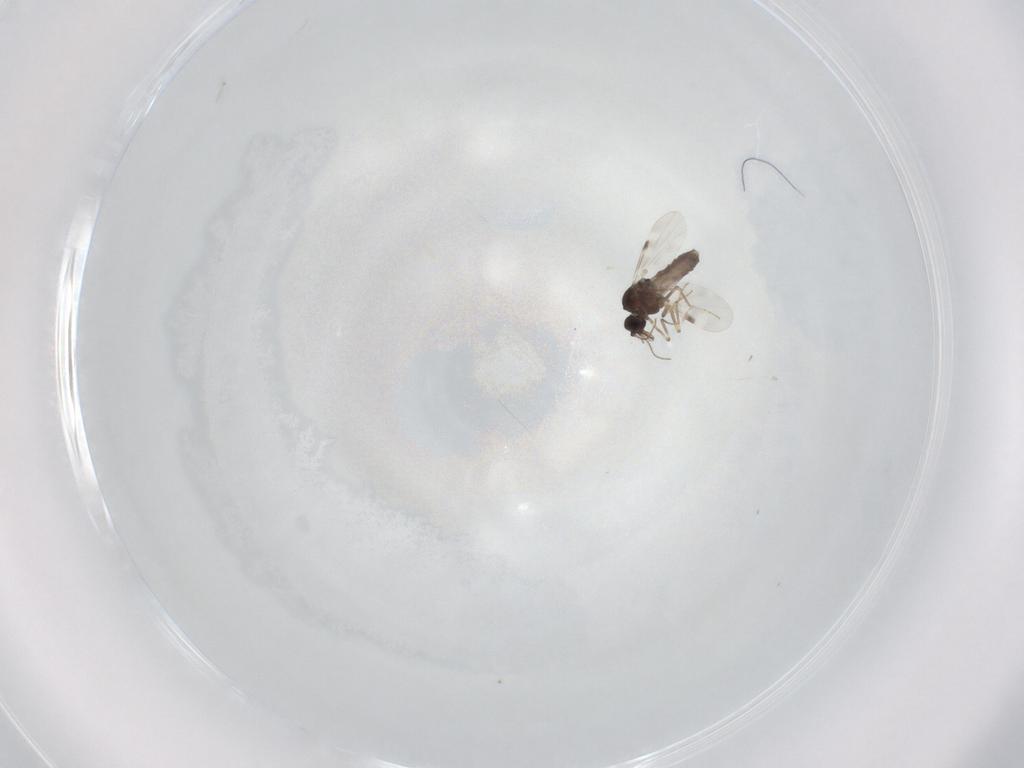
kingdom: Animalia
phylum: Arthropoda
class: Insecta
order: Diptera
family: Chironomidae
